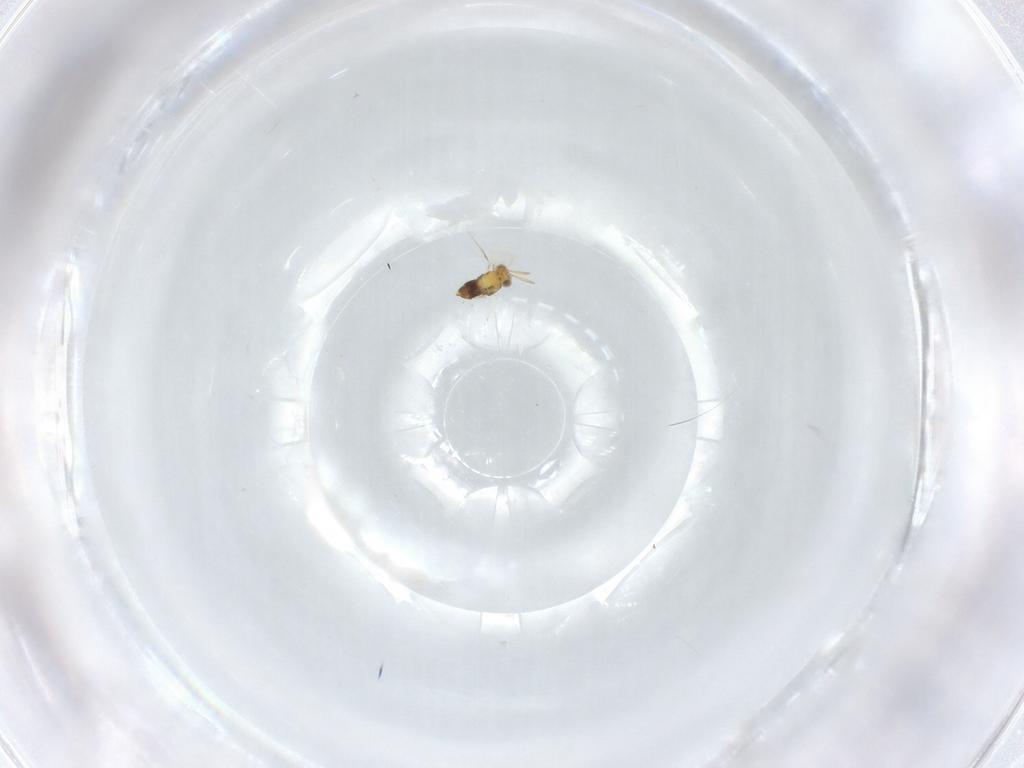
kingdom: Animalia
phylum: Arthropoda
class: Insecta
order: Hymenoptera
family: Aphelinidae
